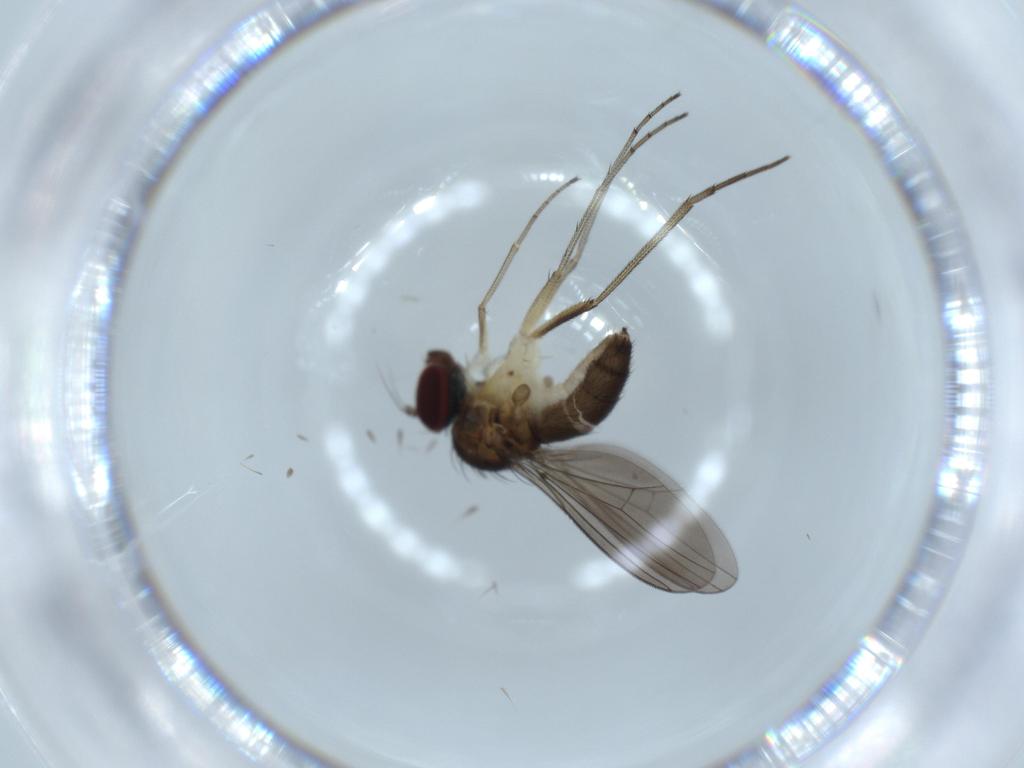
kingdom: Animalia
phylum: Arthropoda
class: Insecta
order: Diptera
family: Dolichopodidae
